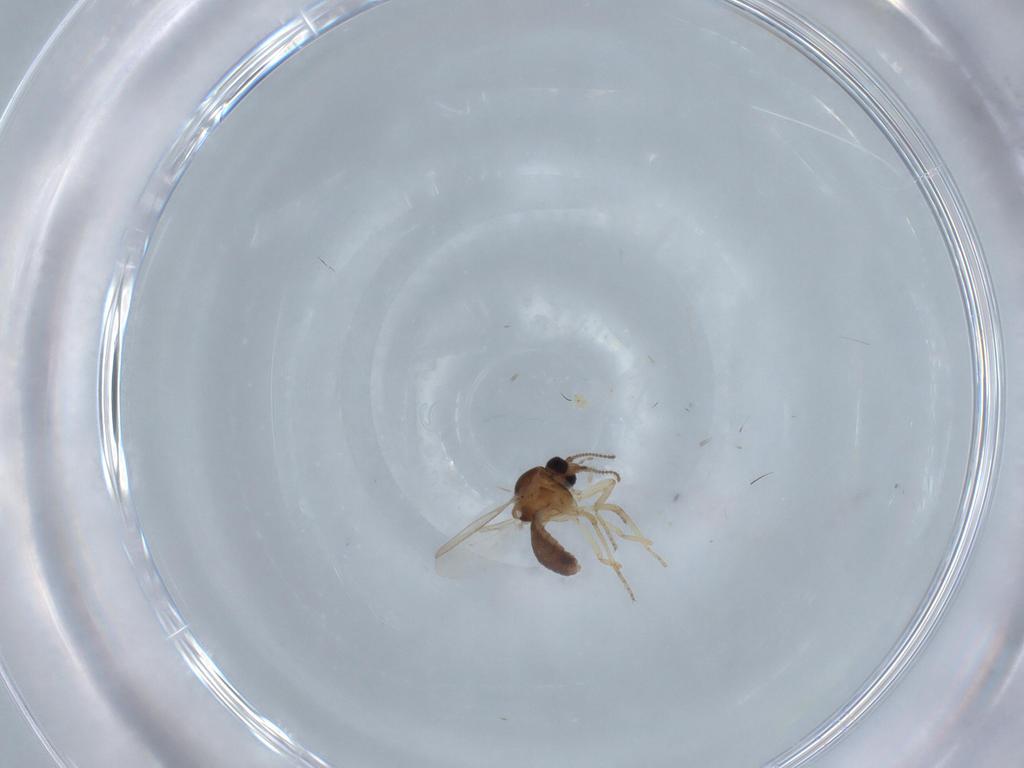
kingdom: Animalia
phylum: Arthropoda
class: Insecta
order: Diptera
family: Ceratopogonidae
